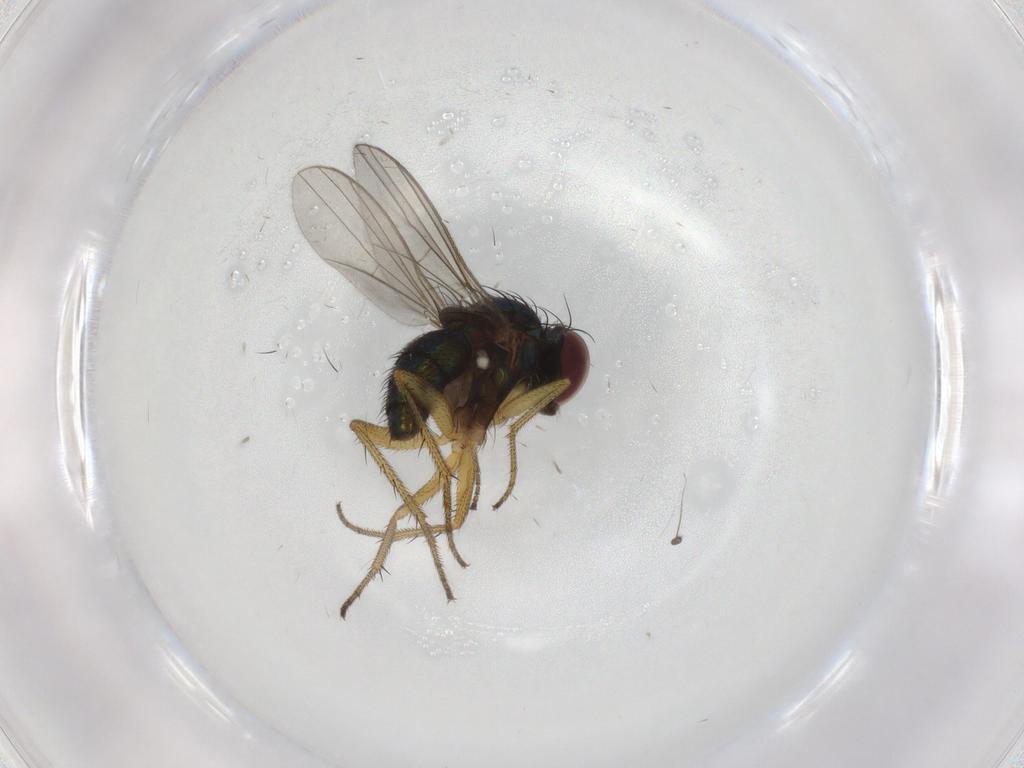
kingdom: Animalia
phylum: Arthropoda
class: Insecta
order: Diptera
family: Dolichopodidae
